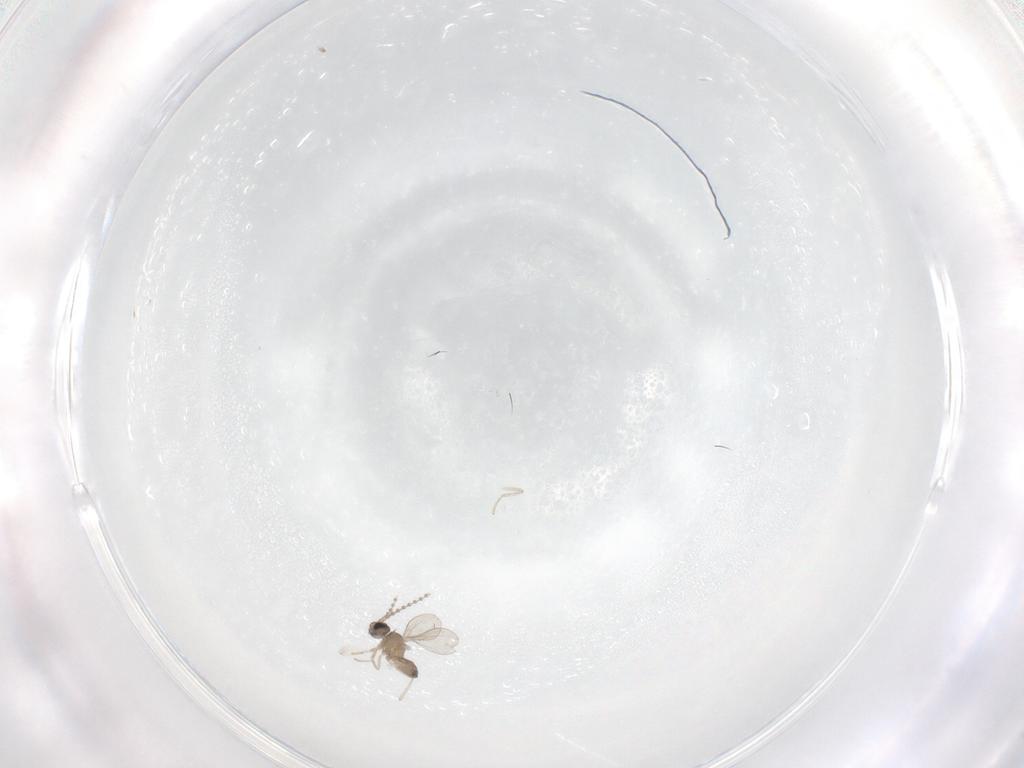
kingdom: Animalia
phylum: Arthropoda
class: Insecta
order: Diptera
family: Cecidomyiidae
